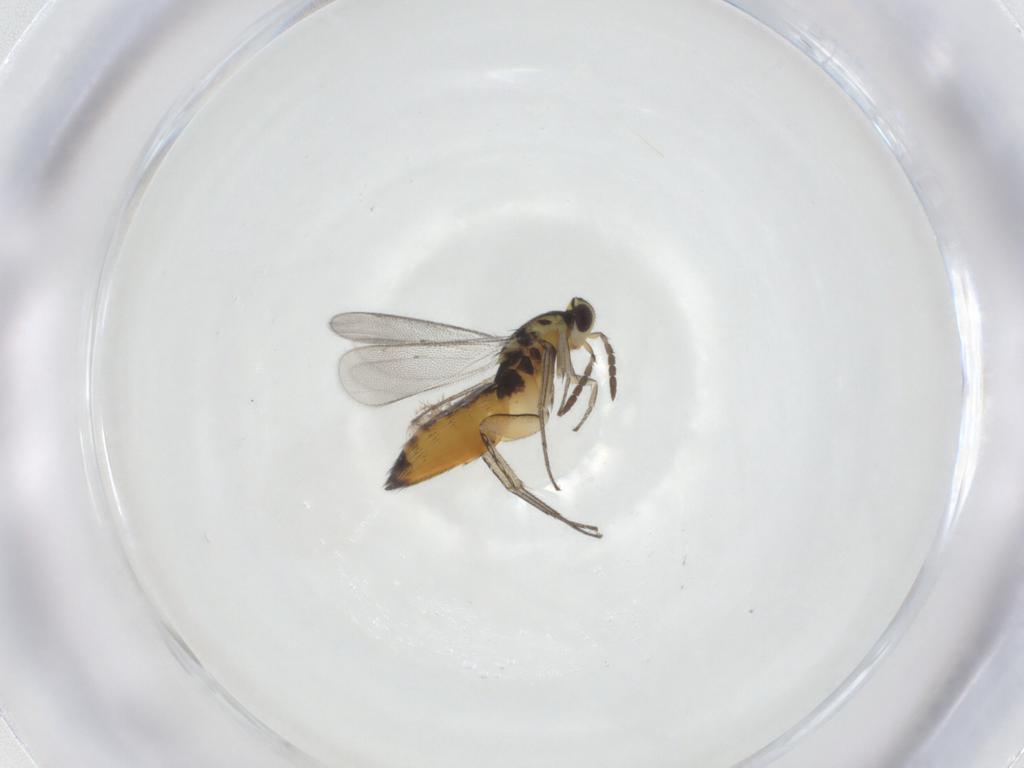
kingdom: Animalia
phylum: Arthropoda
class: Insecta
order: Hymenoptera
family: Eulophidae
